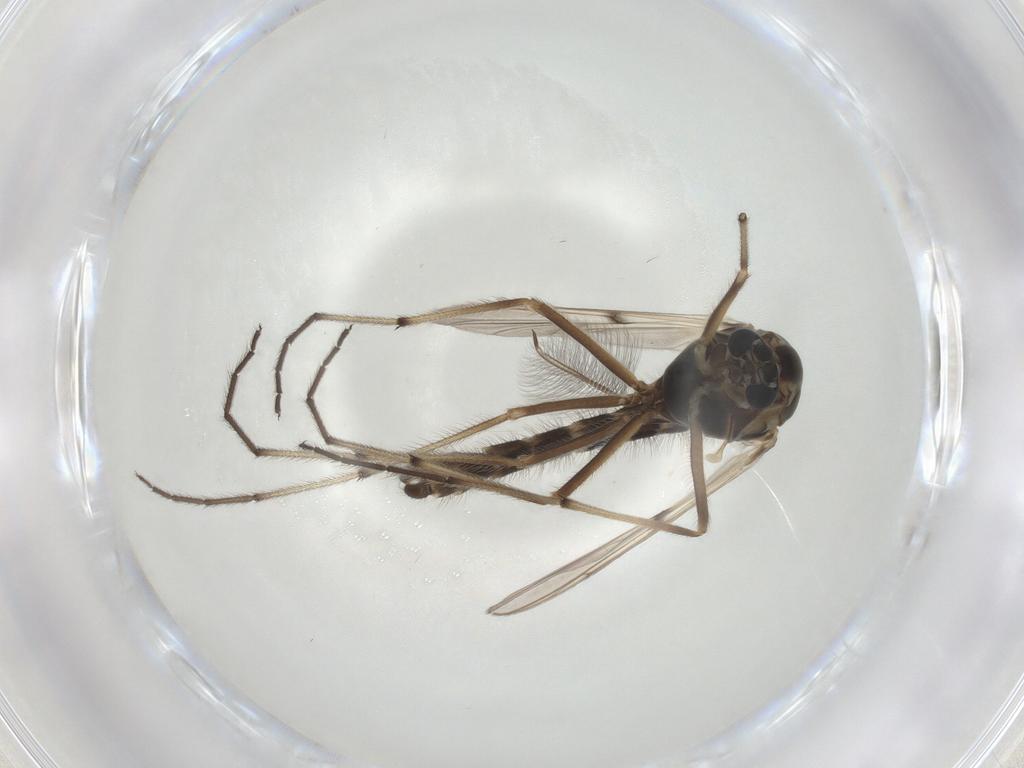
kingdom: Animalia
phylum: Arthropoda
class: Insecta
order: Diptera
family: Chironomidae
